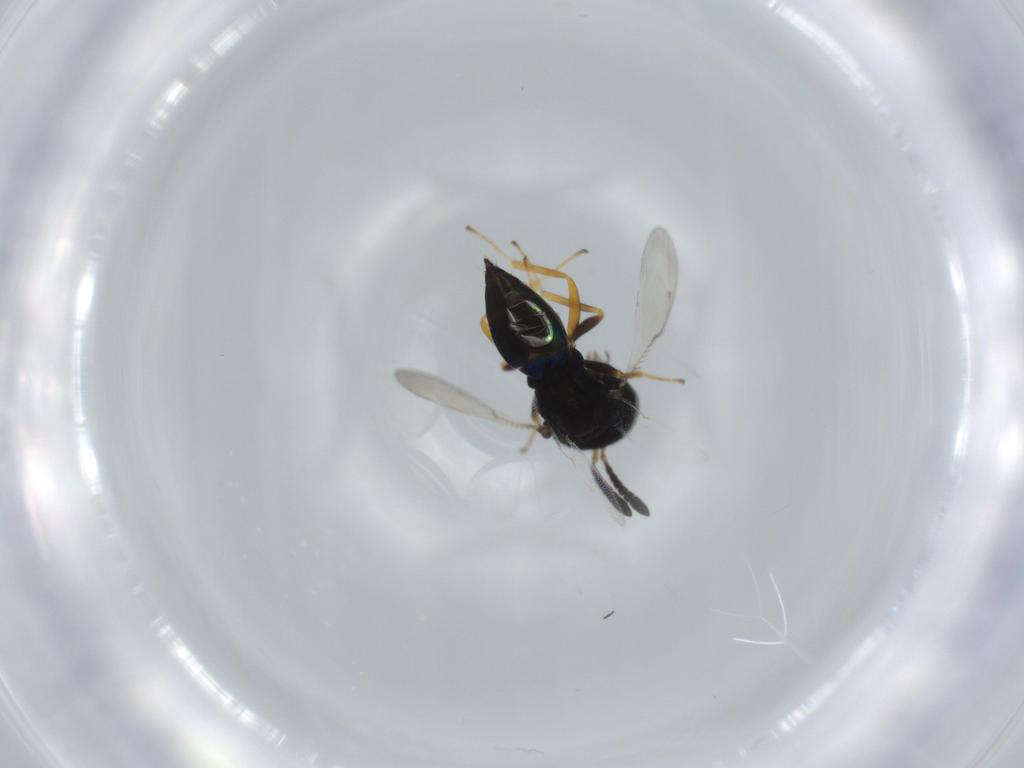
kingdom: Animalia
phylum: Arthropoda
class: Insecta
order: Hymenoptera
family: Pteromalidae
